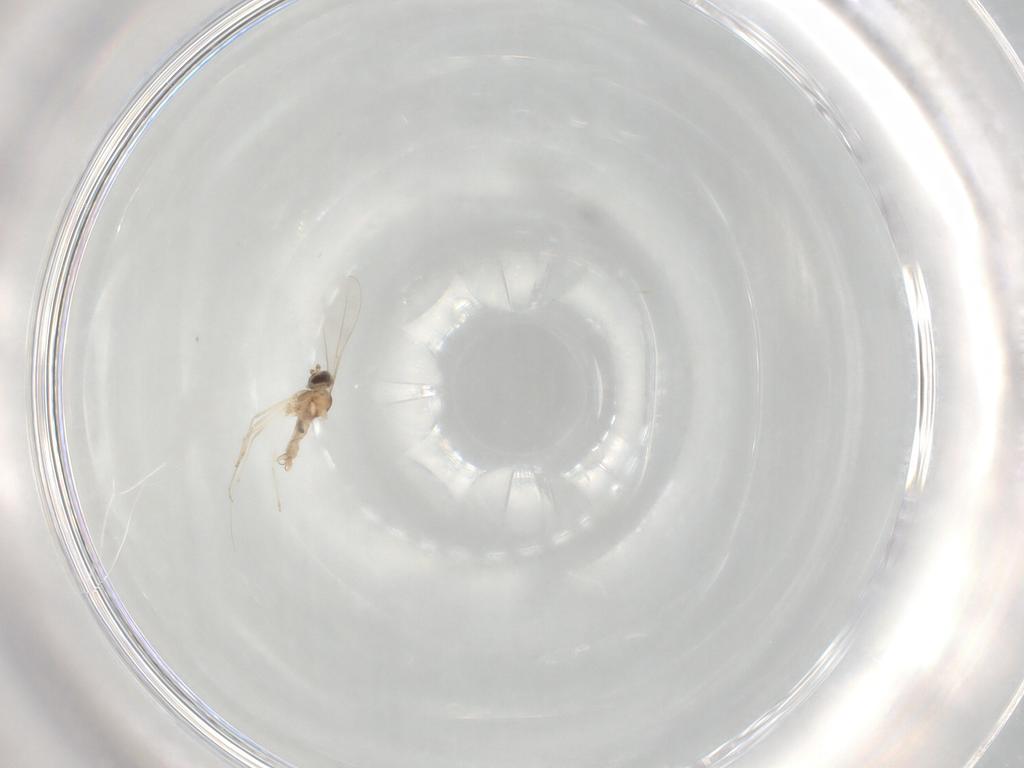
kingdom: Animalia
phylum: Arthropoda
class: Insecta
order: Diptera
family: Cecidomyiidae
